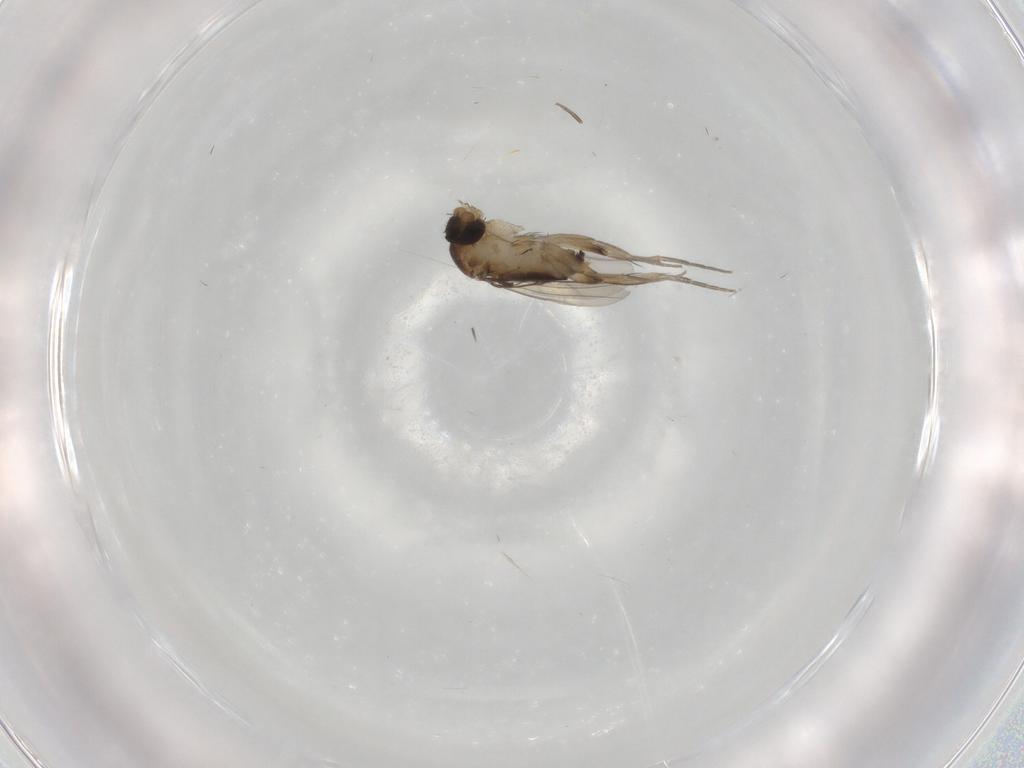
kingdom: Animalia
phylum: Arthropoda
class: Insecta
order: Diptera
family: Phoridae
